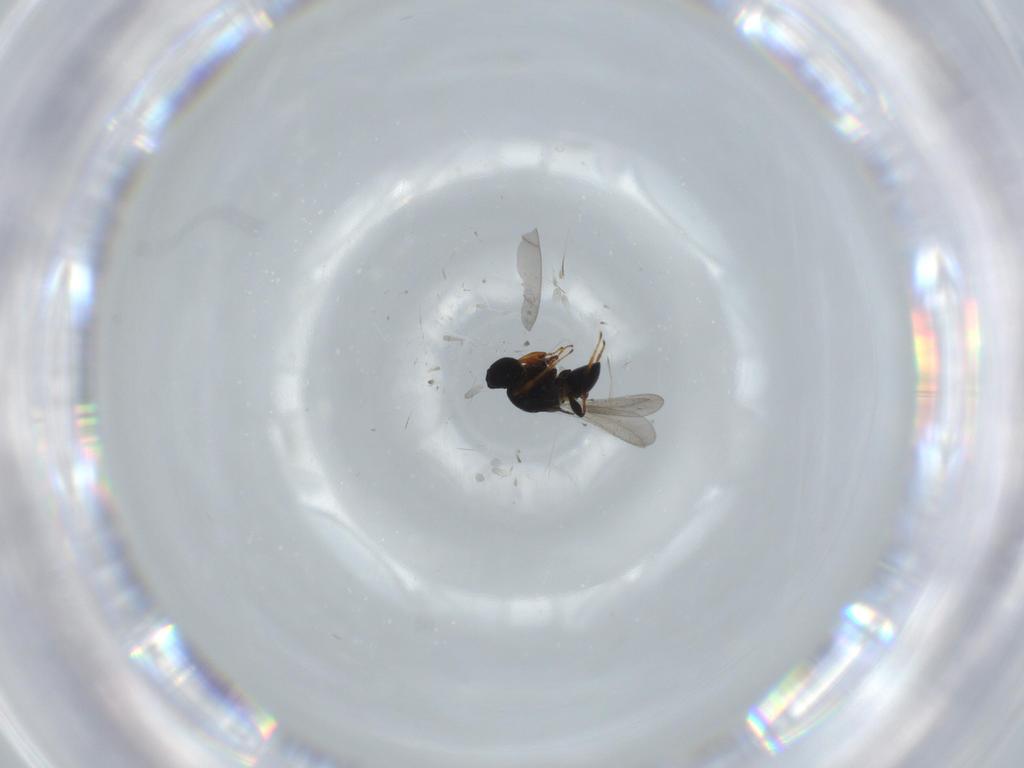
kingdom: Animalia
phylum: Arthropoda
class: Insecta
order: Hymenoptera
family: Platygastridae
